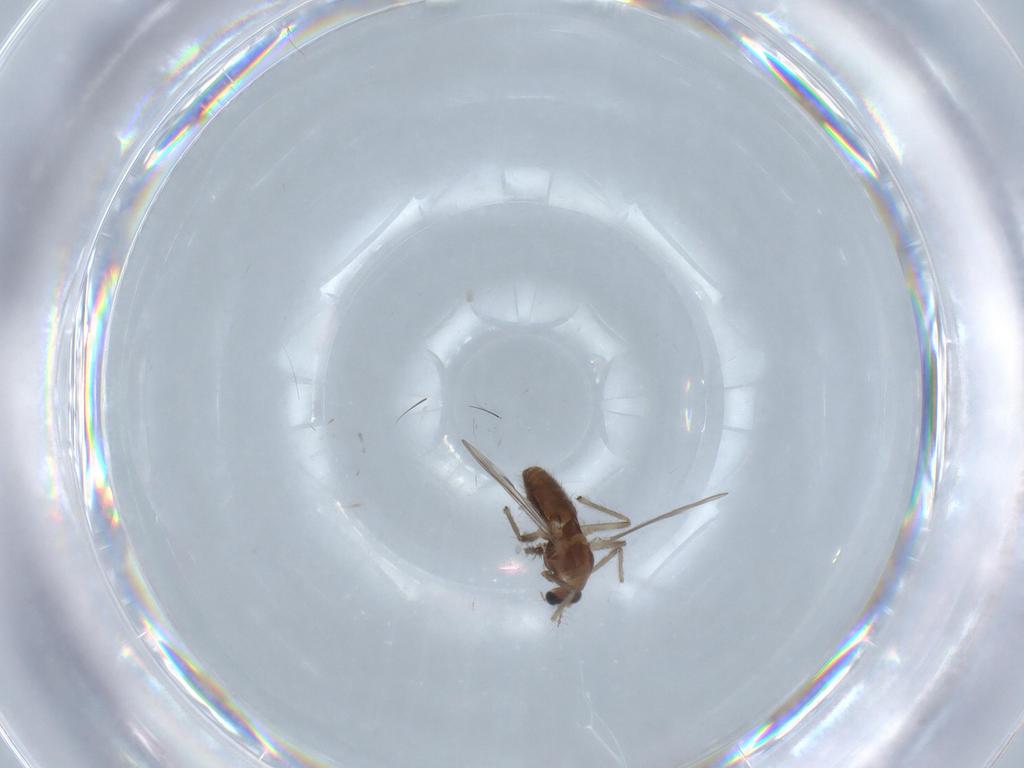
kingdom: Animalia
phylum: Arthropoda
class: Insecta
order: Diptera
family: Chironomidae
